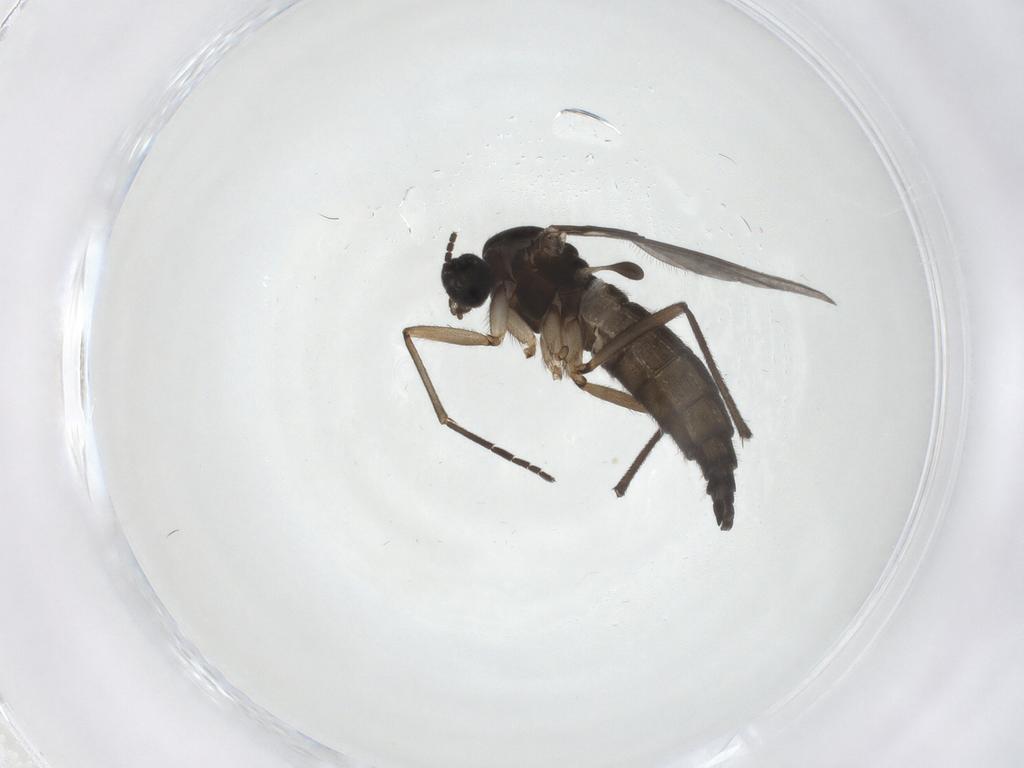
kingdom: Animalia
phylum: Arthropoda
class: Insecta
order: Diptera
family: Sciaridae
